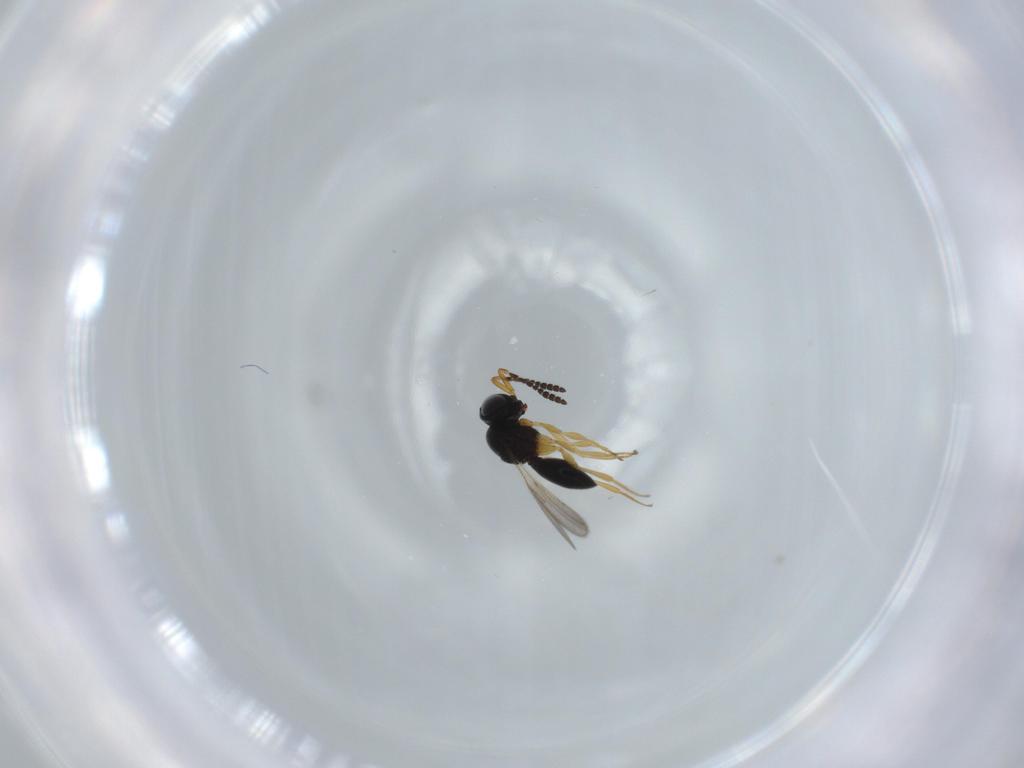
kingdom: Animalia
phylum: Arthropoda
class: Insecta
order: Hymenoptera
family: Scelionidae
